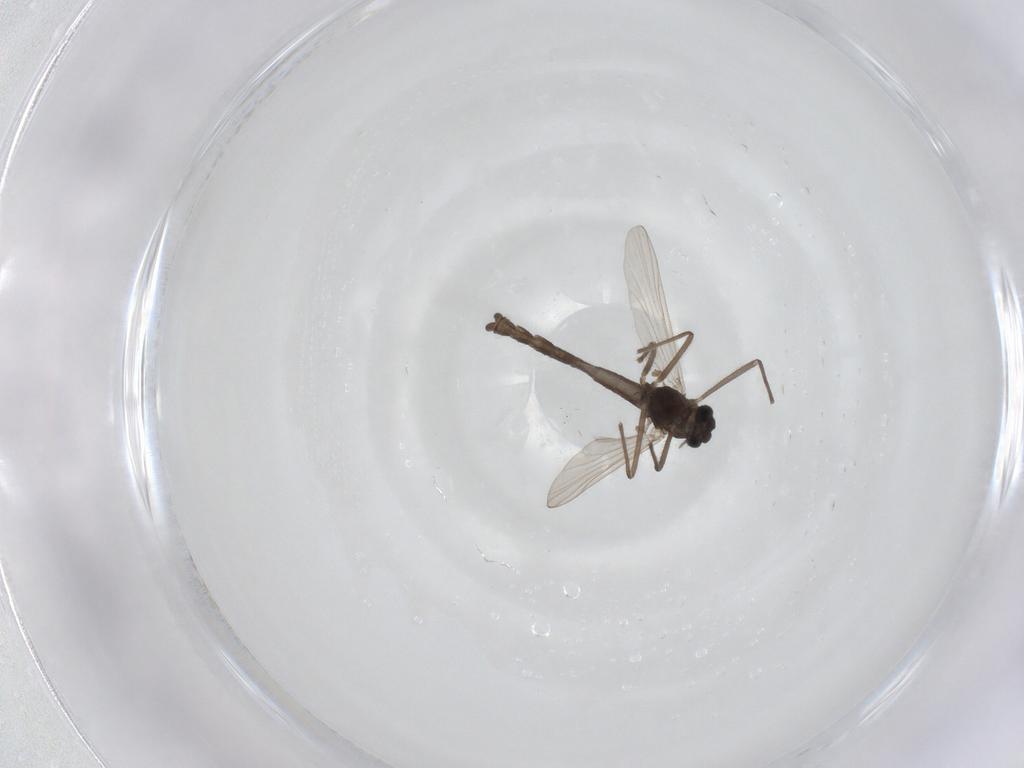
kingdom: Animalia
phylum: Arthropoda
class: Insecta
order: Diptera
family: Chironomidae
